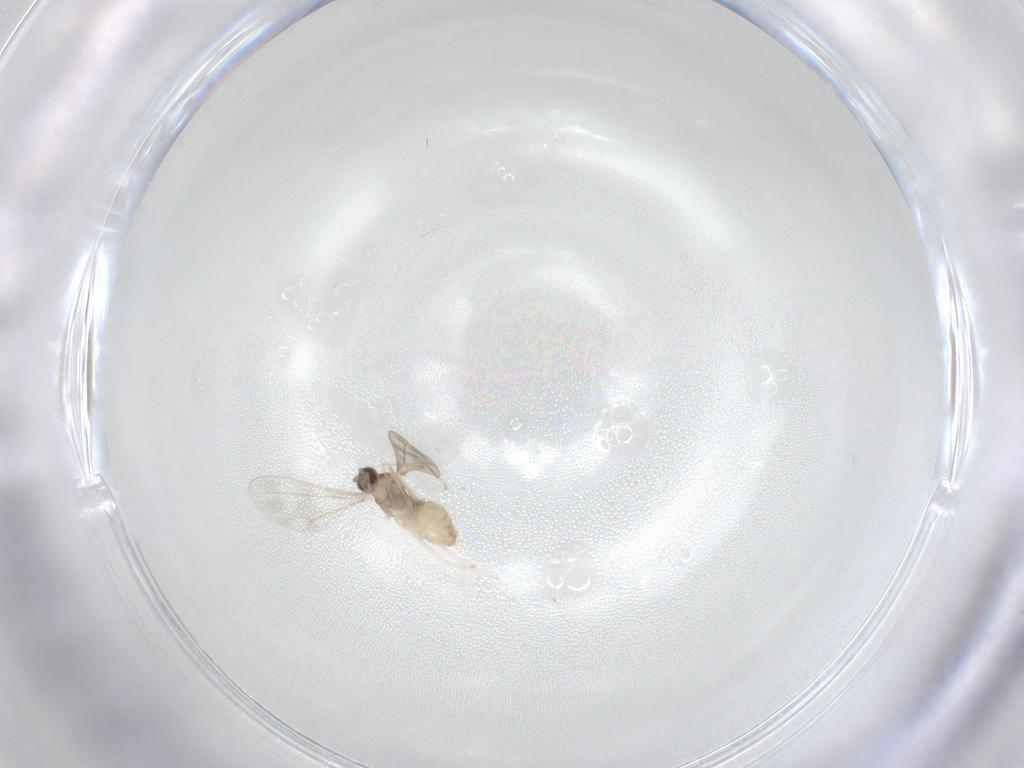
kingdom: Animalia
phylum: Arthropoda
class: Insecta
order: Diptera
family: Cecidomyiidae
